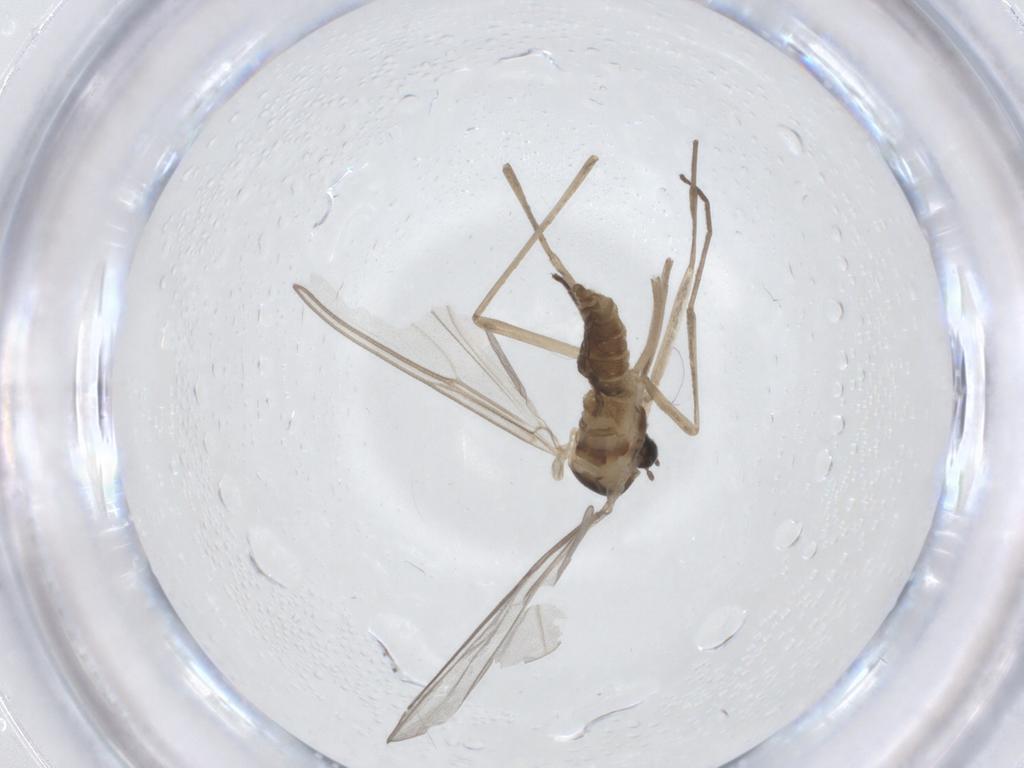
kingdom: Animalia
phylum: Arthropoda
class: Insecta
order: Diptera
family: Cecidomyiidae
